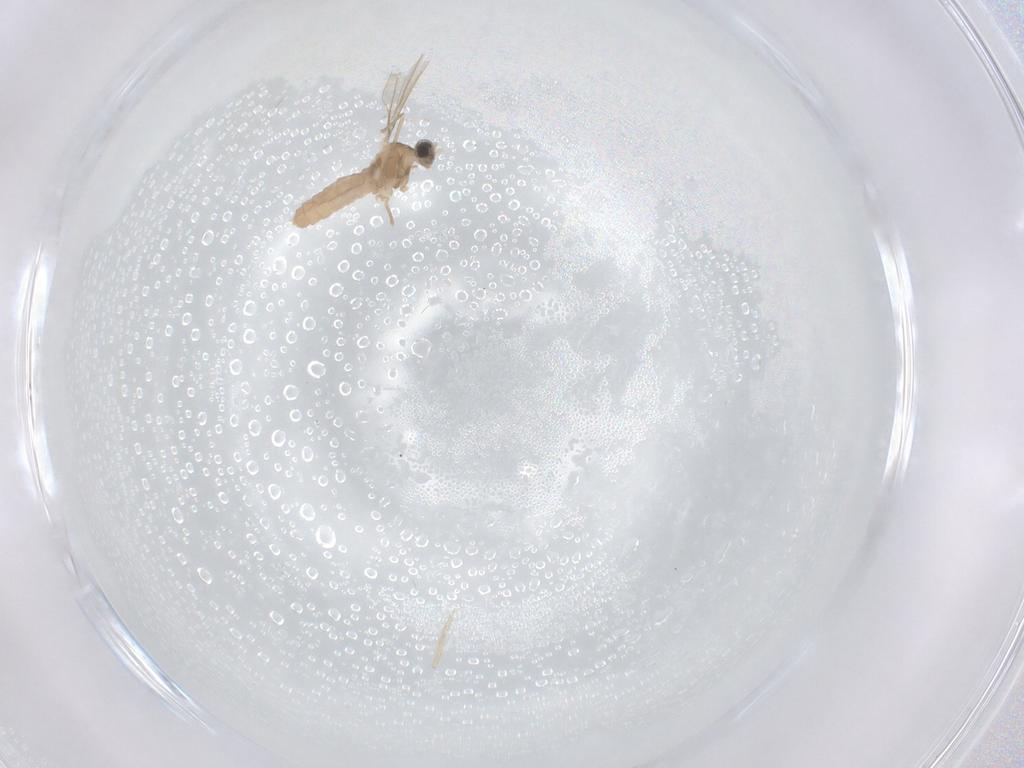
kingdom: Animalia
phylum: Arthropoda
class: Insecta
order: Diptera
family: Cecidomyiidae
